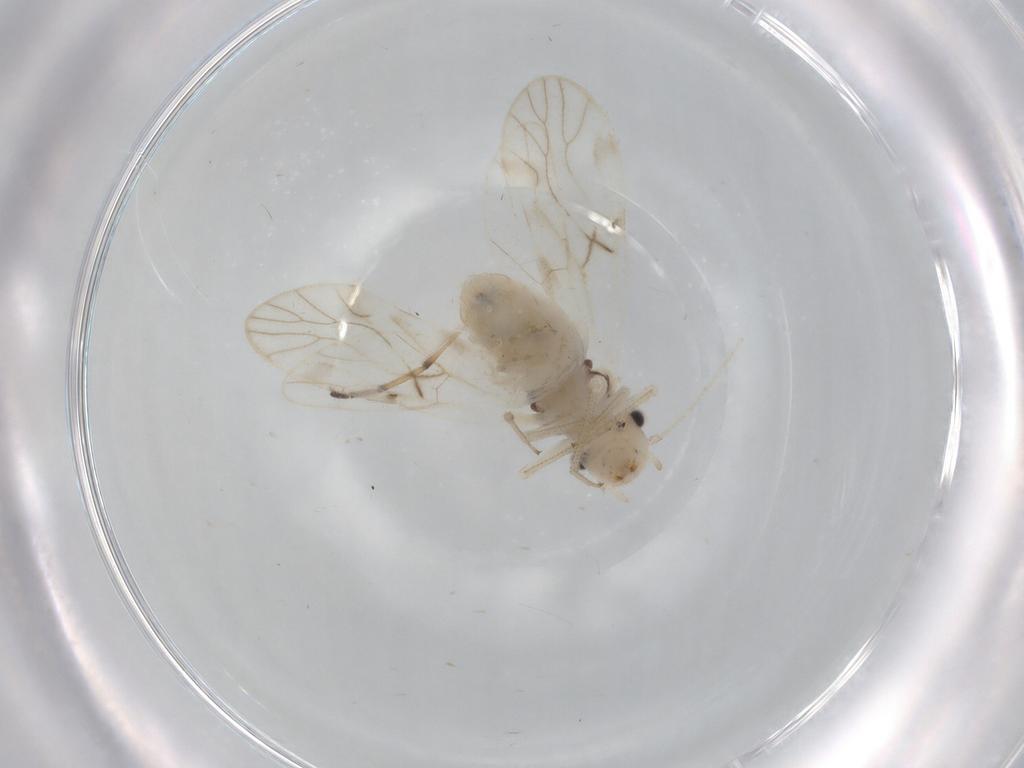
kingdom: Animalia
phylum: Arthropoda
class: Insecta
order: Psocodea
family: Caeciliusidae
